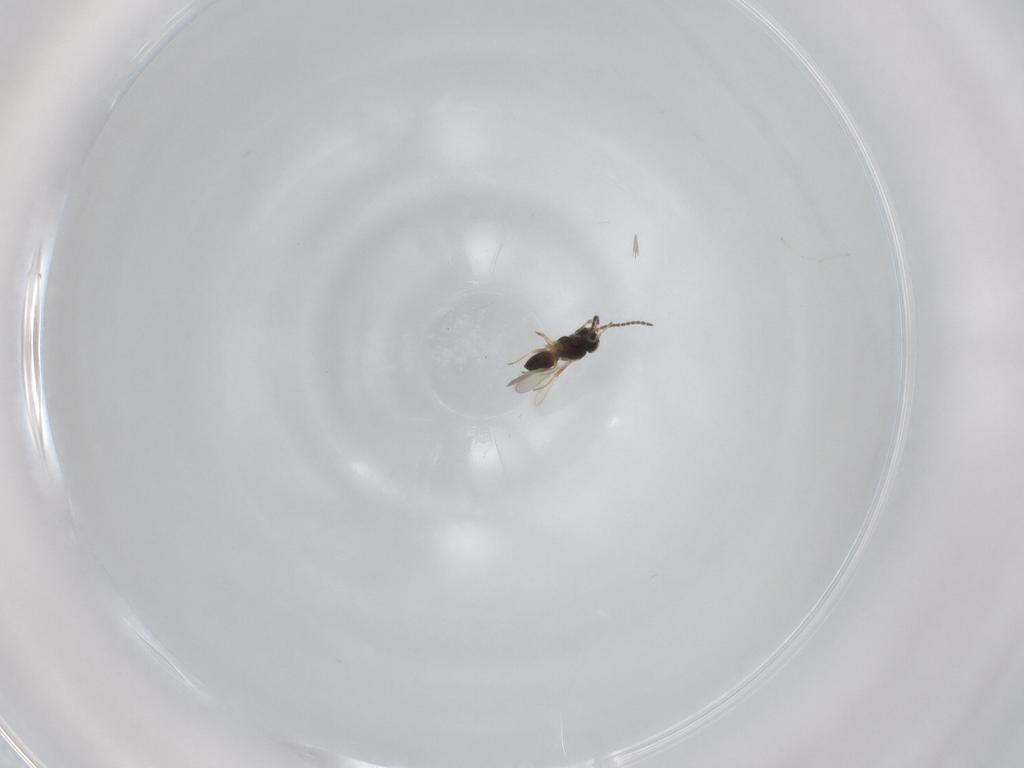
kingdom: Animalia
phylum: Arthropoda
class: Insecta
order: Hymenoptera
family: Scelionidae
